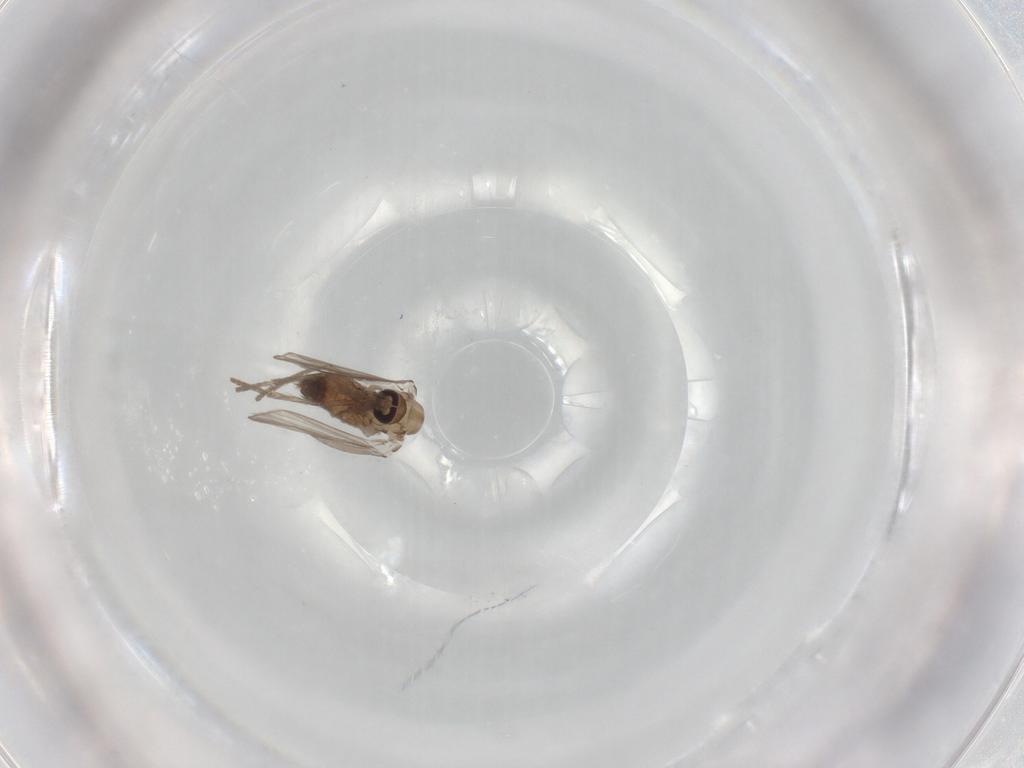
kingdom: Animalia
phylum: Arthropoda
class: Insecta
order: Diptera
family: Psychodidae
